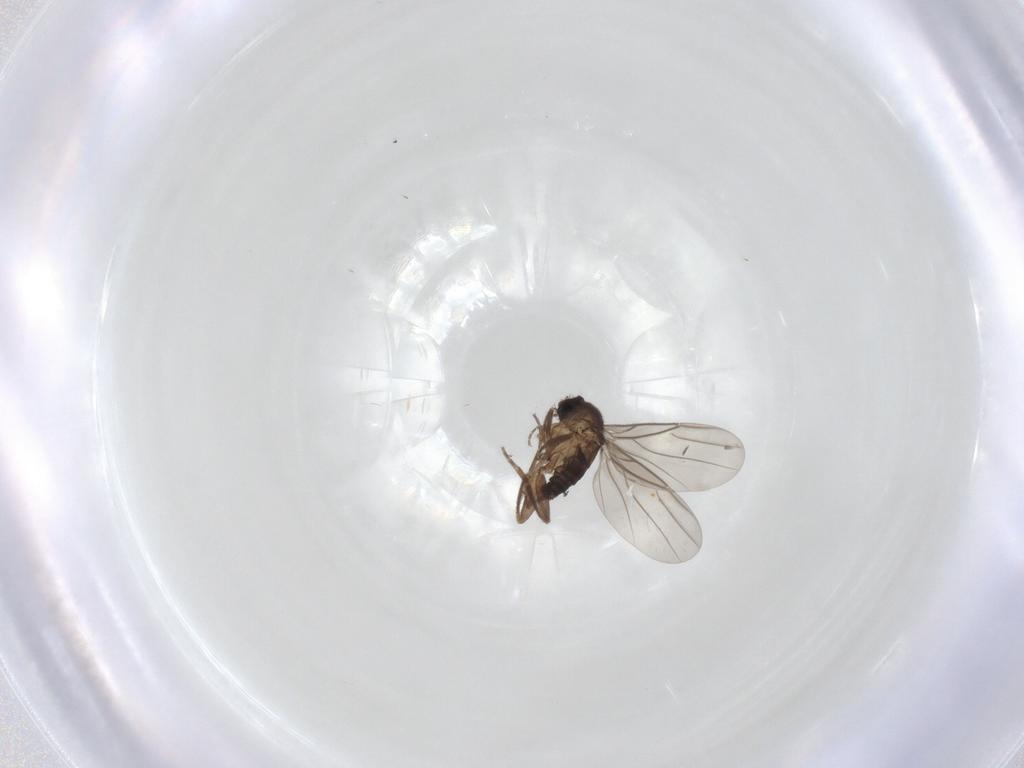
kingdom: Animalia
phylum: Arthropoda
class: Insecta
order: Diptera
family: Phoridae
